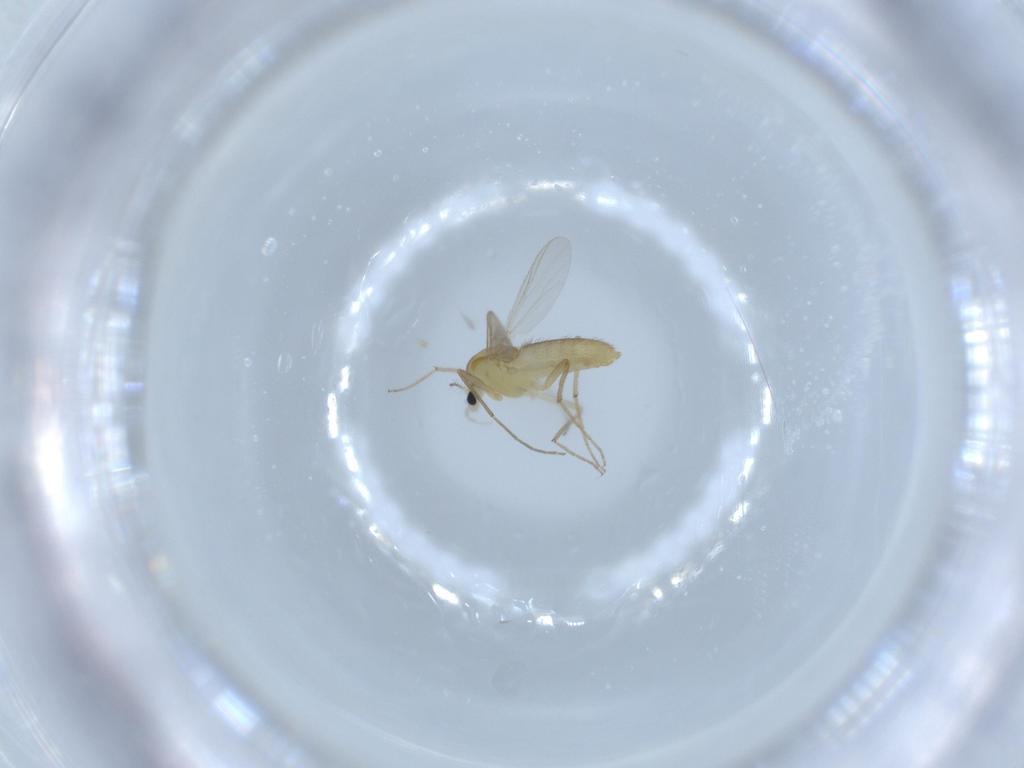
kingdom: Animalia
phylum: Arthropoda
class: Insecta
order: Diptera
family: Chironomidae
